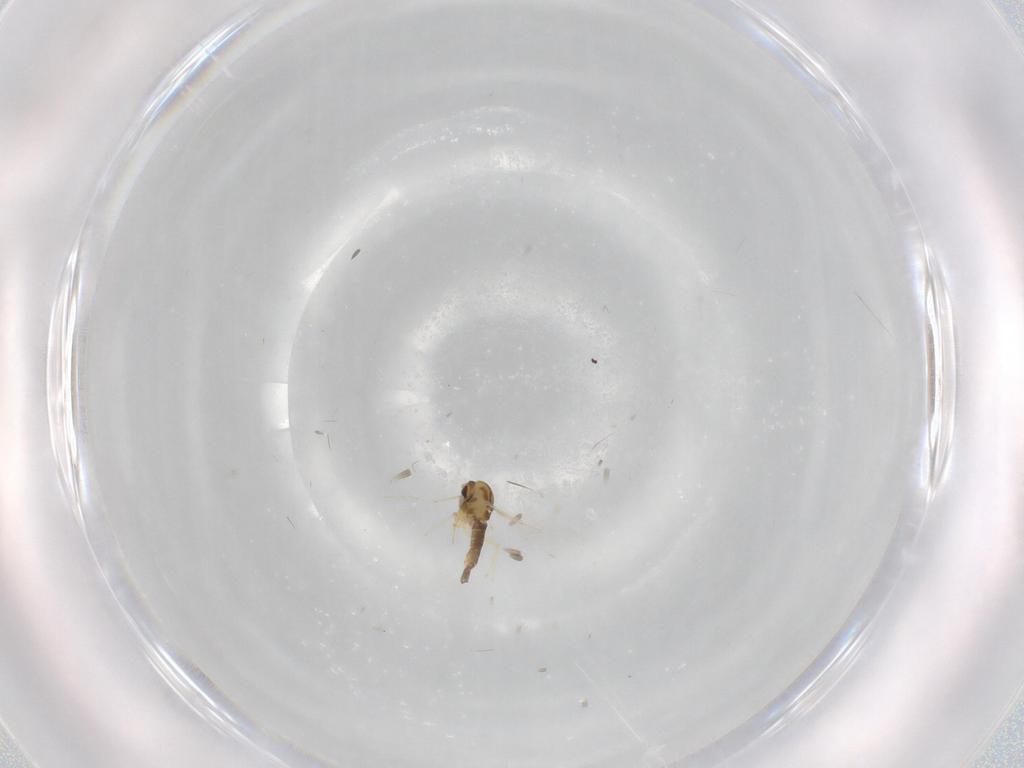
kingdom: Animalia
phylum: Arthropoda
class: Insecta
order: Diptera
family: Chironomidae
